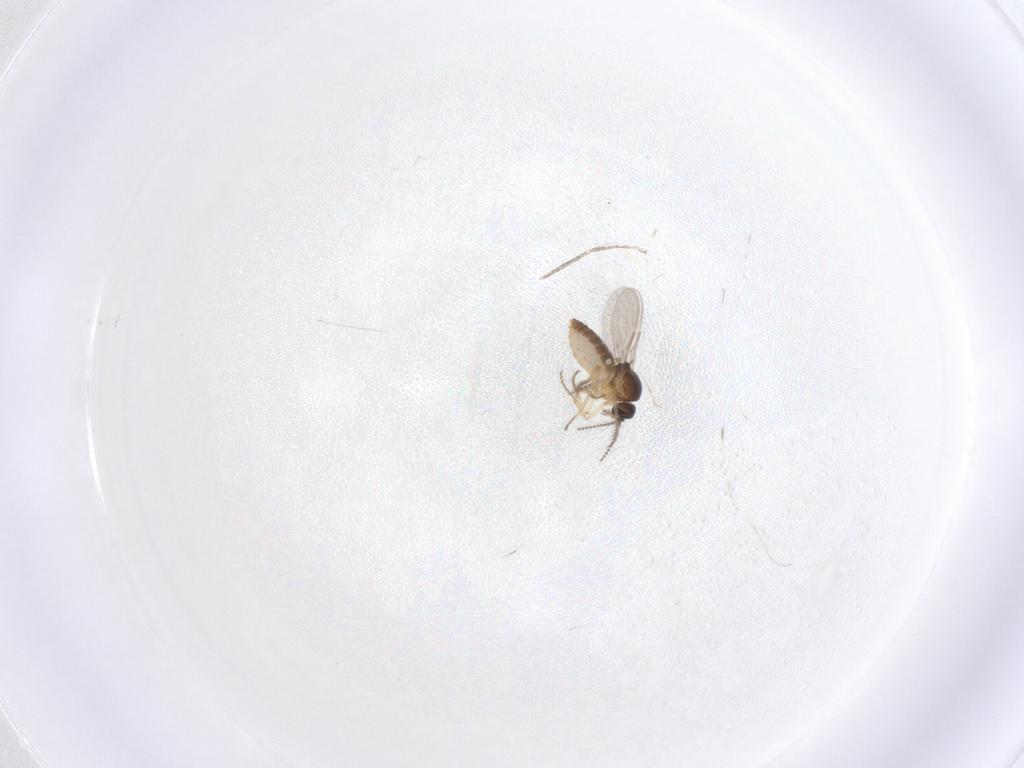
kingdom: Animalia
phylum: Arthropoda
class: Insecta
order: Diptera
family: Ceratopogonidae
